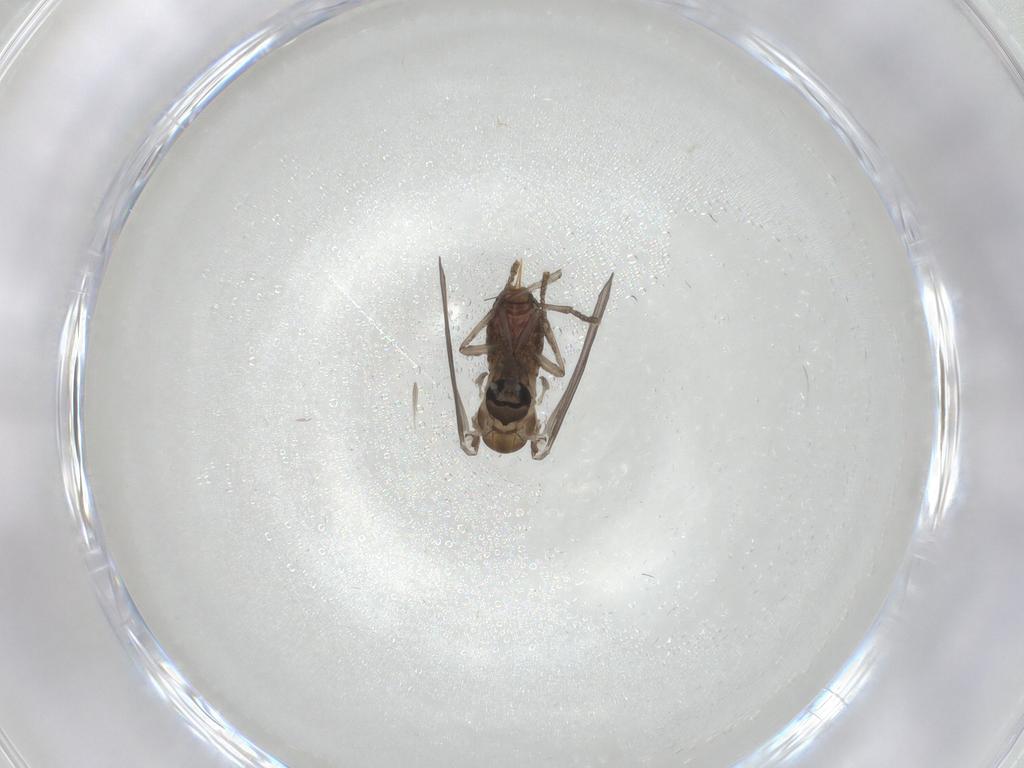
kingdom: Animalia
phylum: Arthropoda
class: Insecta
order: Diptera
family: Psychodidae
